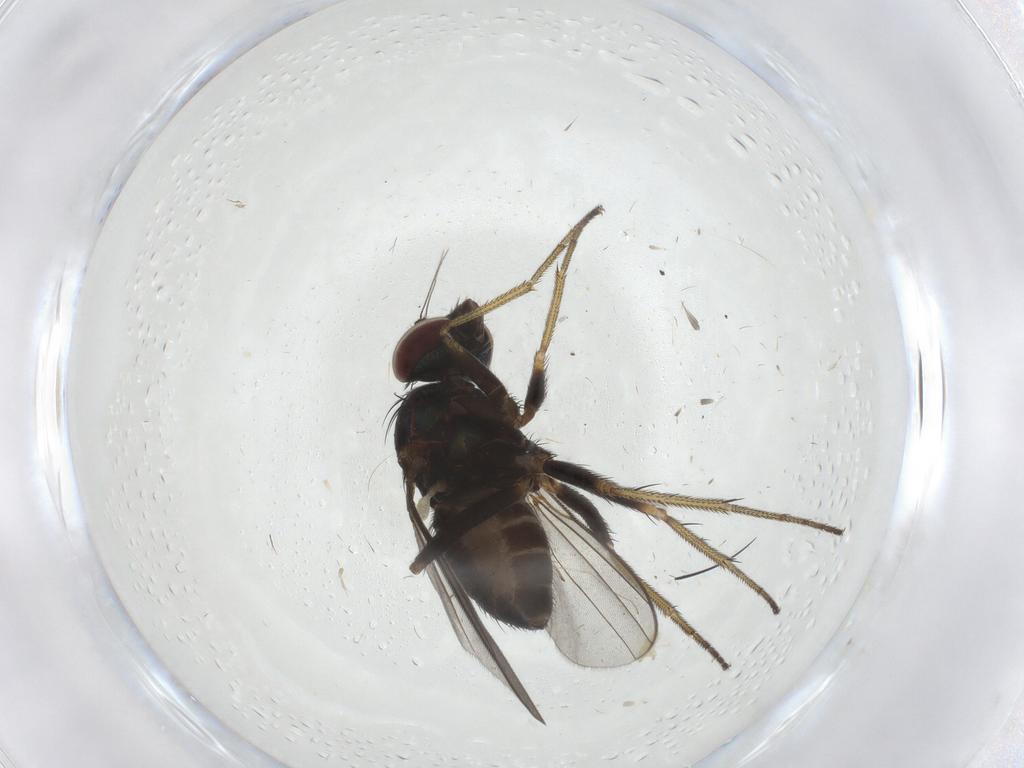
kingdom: Animalia
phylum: Arthropoda
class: Insecta
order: Diptera
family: Dolichopodidae
